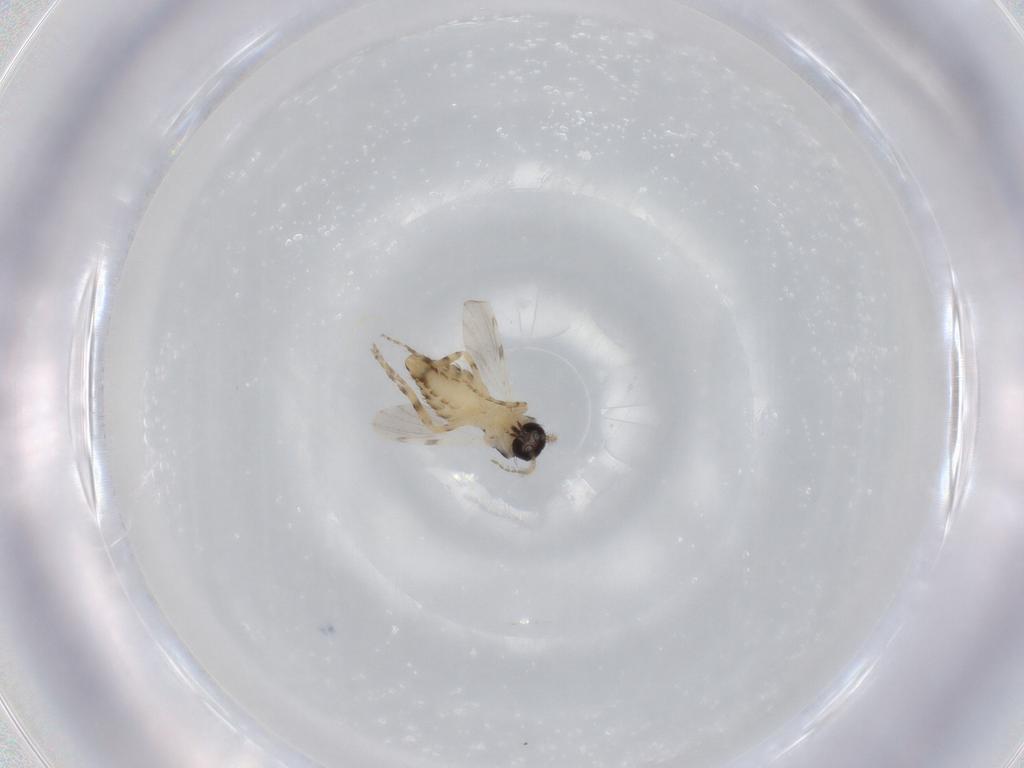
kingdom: Animalia
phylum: Arthropoda
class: Insecta
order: Diptera
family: Ceratopogonidae
